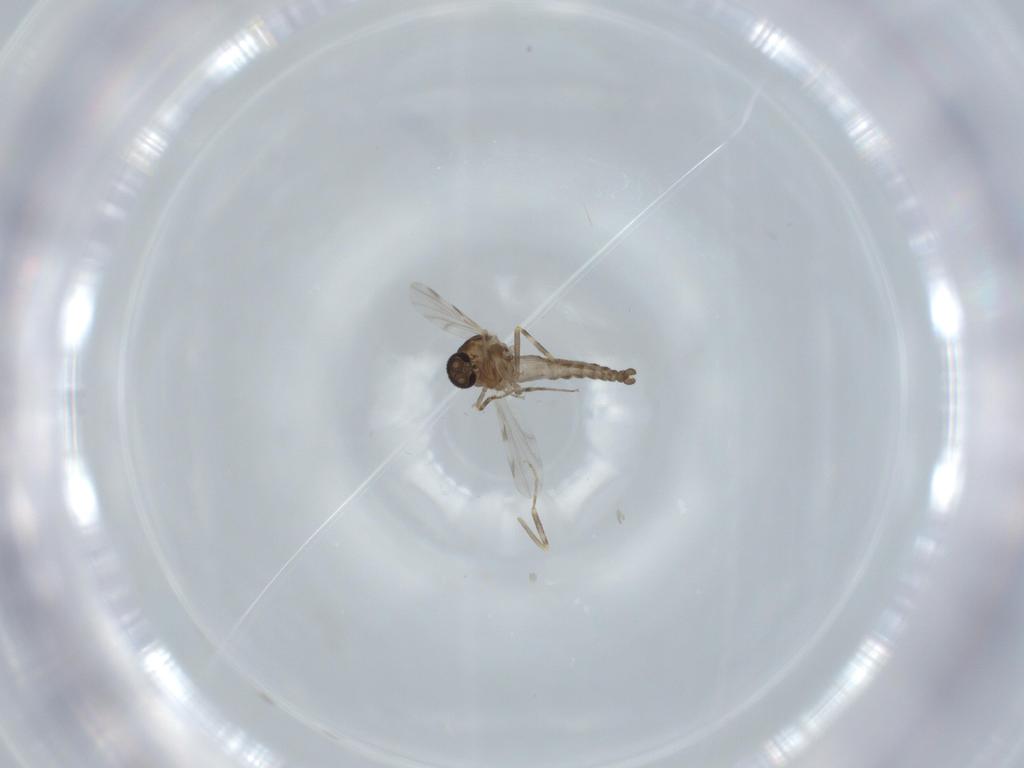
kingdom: Animalia
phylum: Arthropoda
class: Insecta
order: Diptera
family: Ceratopogonidae
